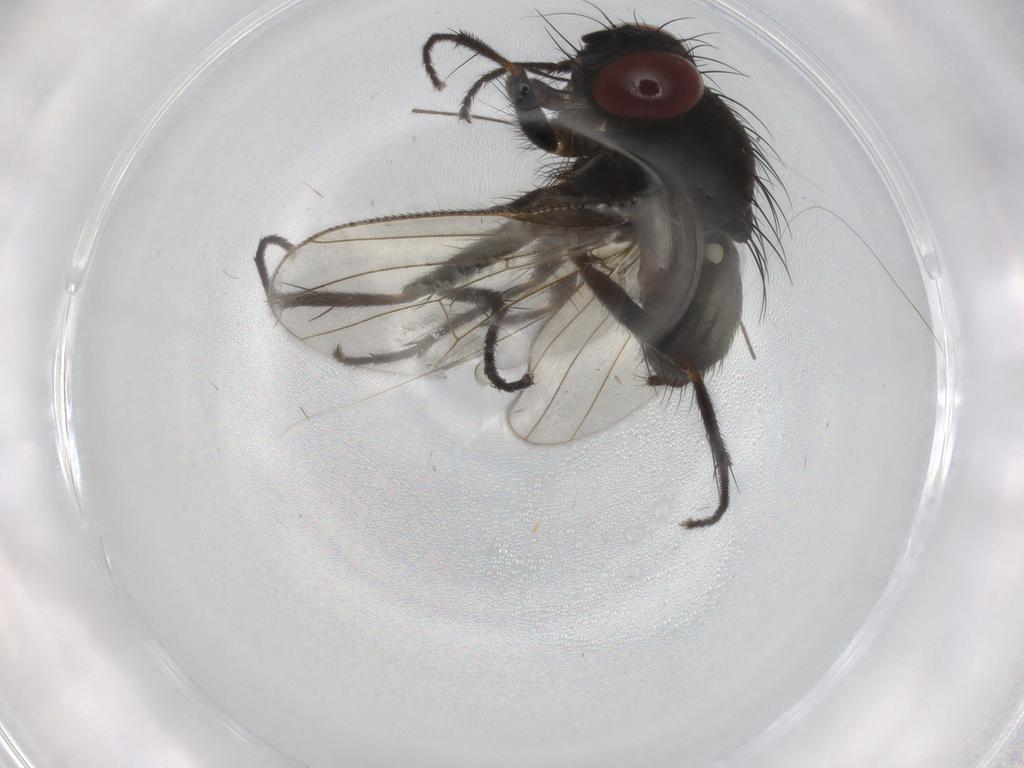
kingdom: Animalia
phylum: Arthropoda
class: Insecta
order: Diptera
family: Muscidae
